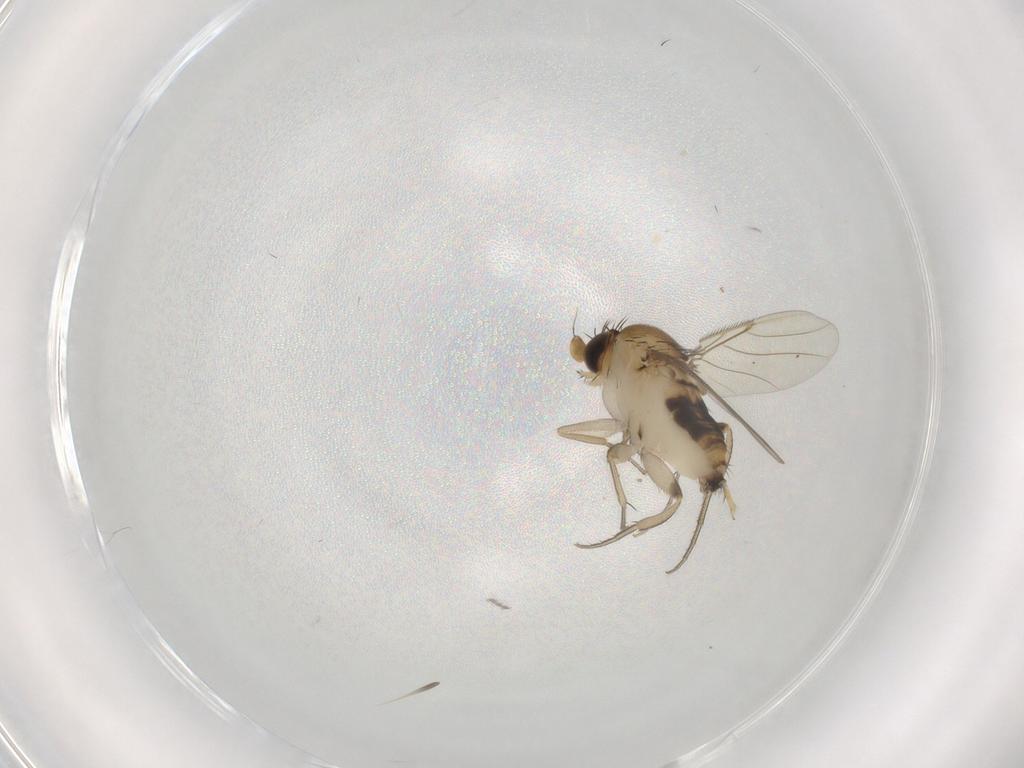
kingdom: Animalia
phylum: Arthropoda
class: Insecta
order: Diptera
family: Phoridae
